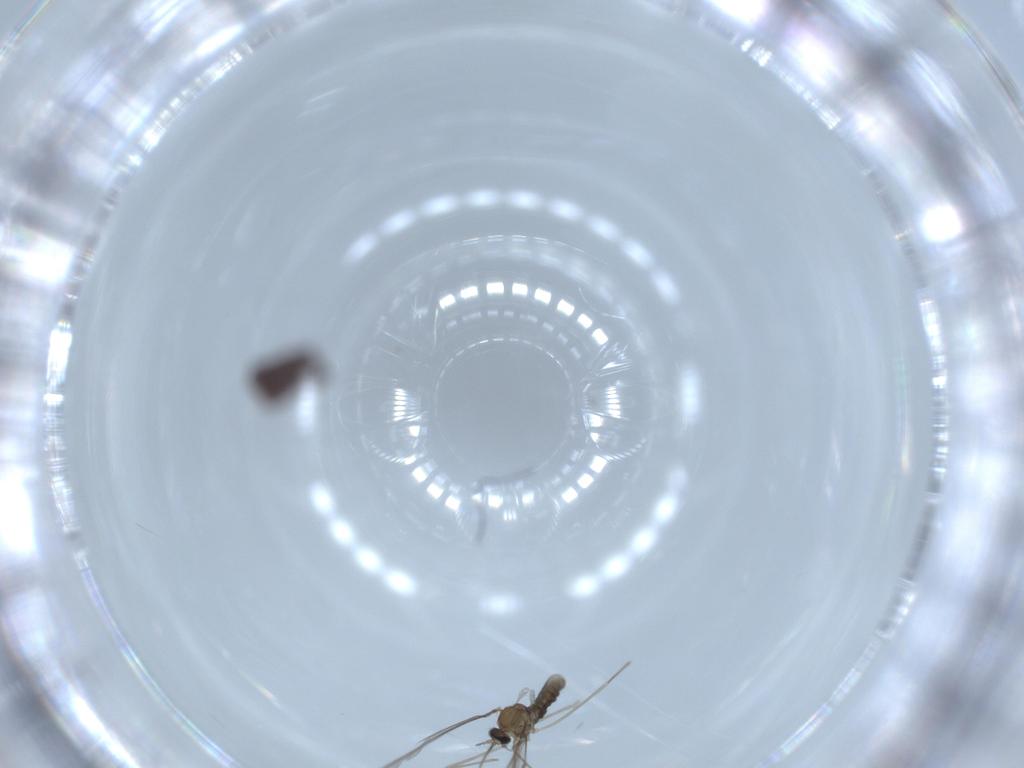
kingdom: Animalia
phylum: Arthropoda
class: Insecta
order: Diptera
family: Cecidomyiidae
